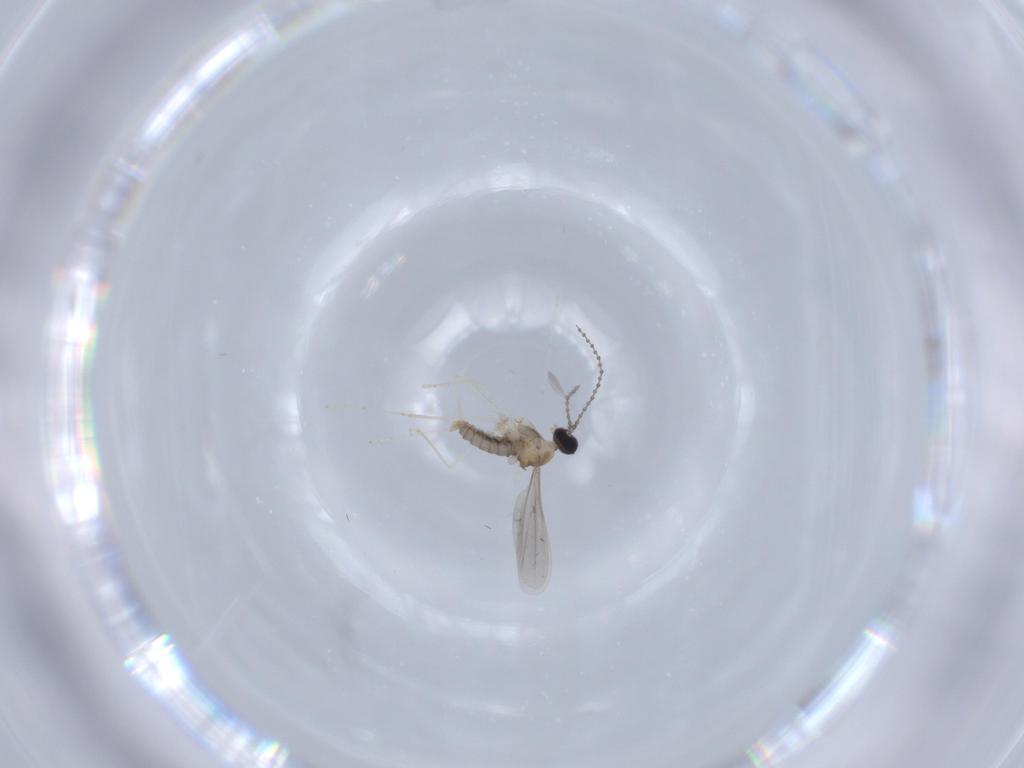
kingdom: Animalia
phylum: Arthropoda
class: Insecta
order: Diptera
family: Cecidomyiidae
